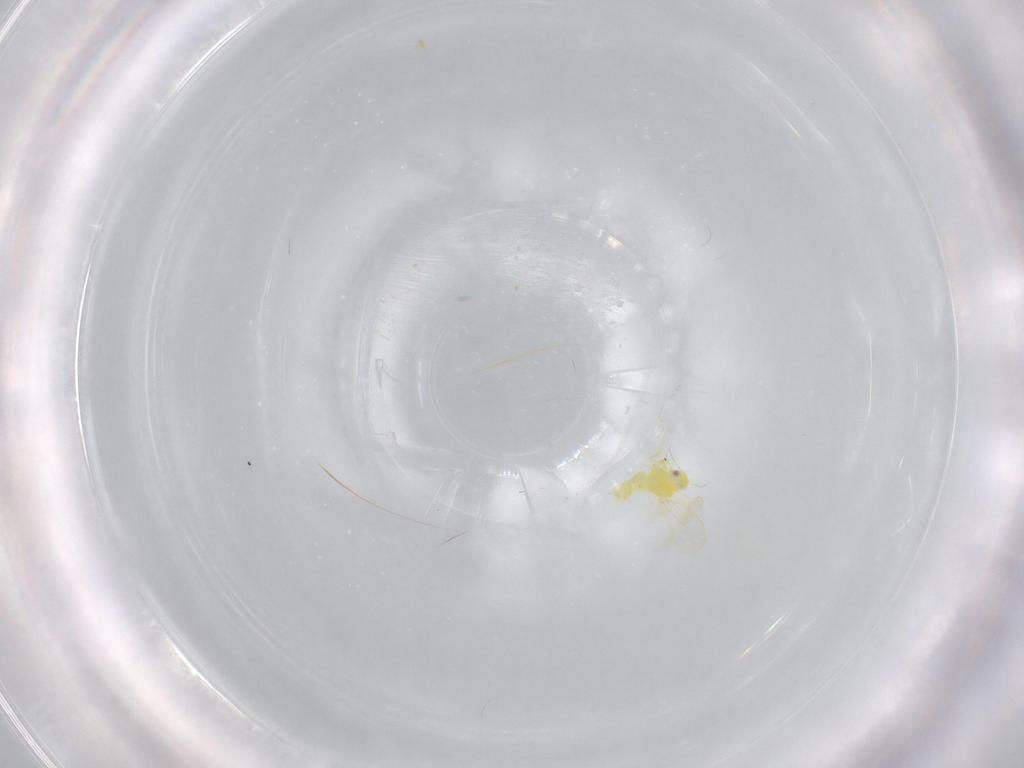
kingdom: Animalia
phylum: Arthropoda
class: Insecta
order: Hemiptera
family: Aleyrodidae
